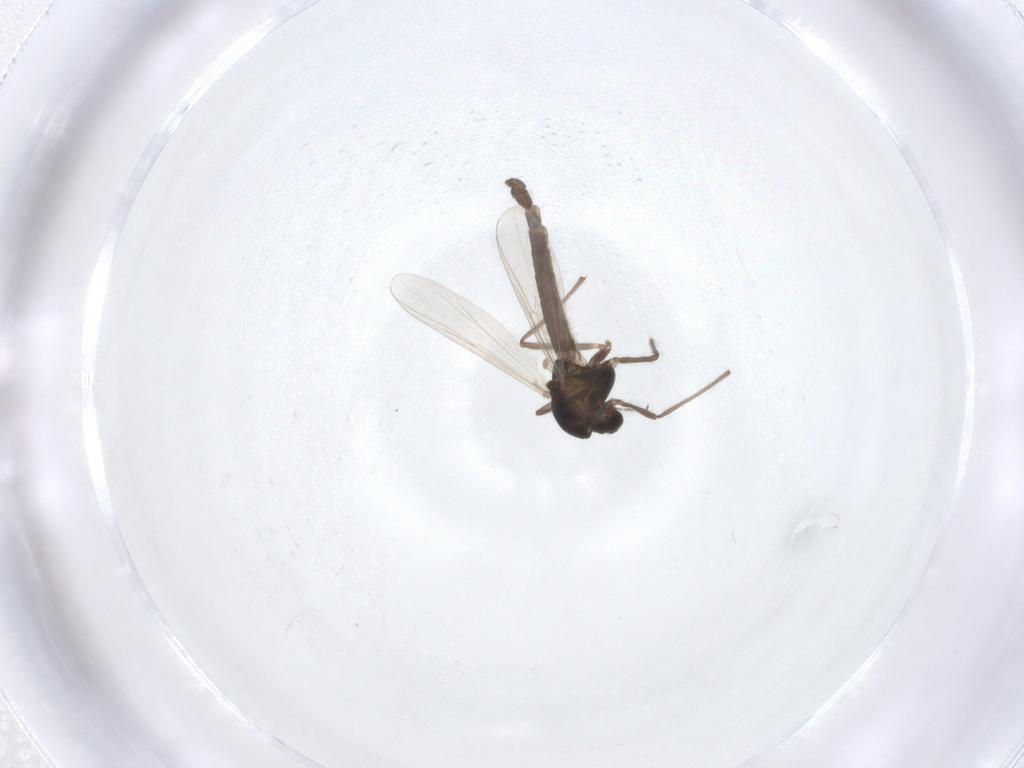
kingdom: Animalia
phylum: Arthropoda
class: Insecta
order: Diptera
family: Chironomidae
